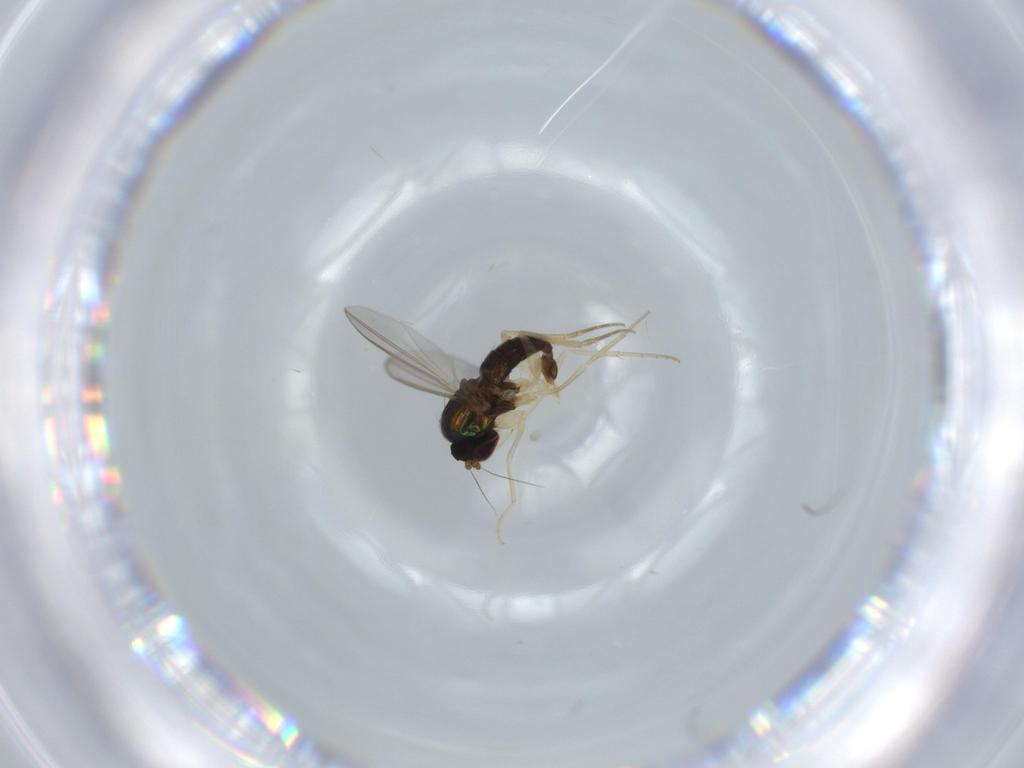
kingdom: Animalia
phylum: Arthropoda
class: Insecta
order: Diptera
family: Dolichopodidae
